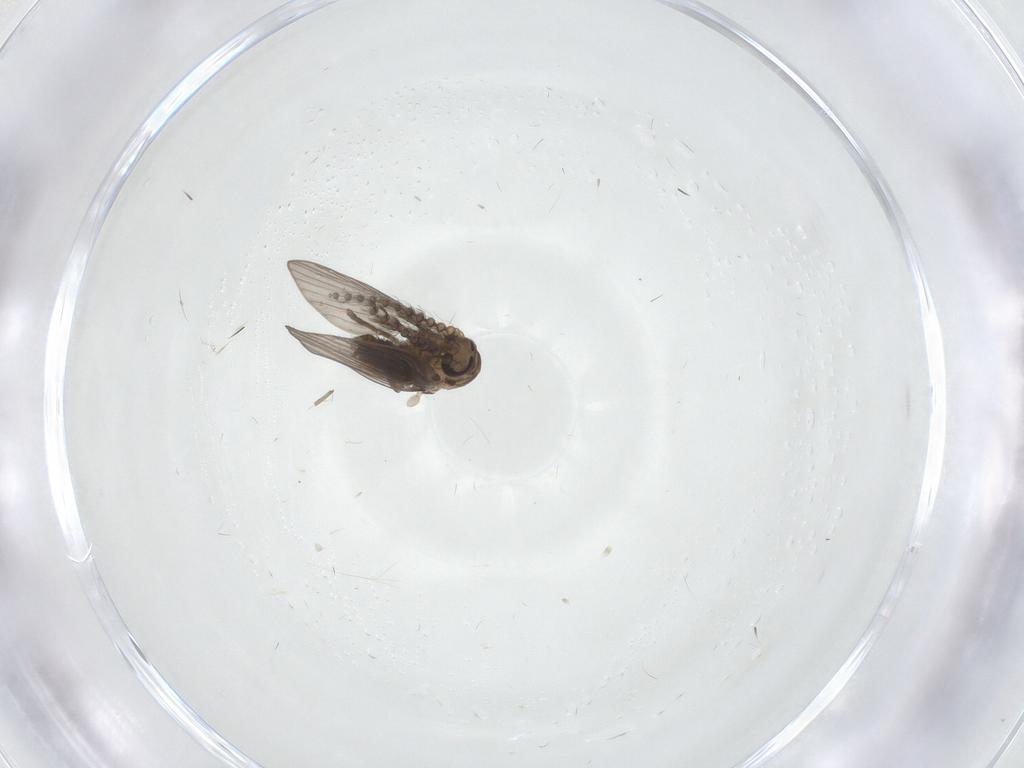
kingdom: Animalia
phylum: Arthropoda
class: Insecta
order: Diptera
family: Psychodidae
